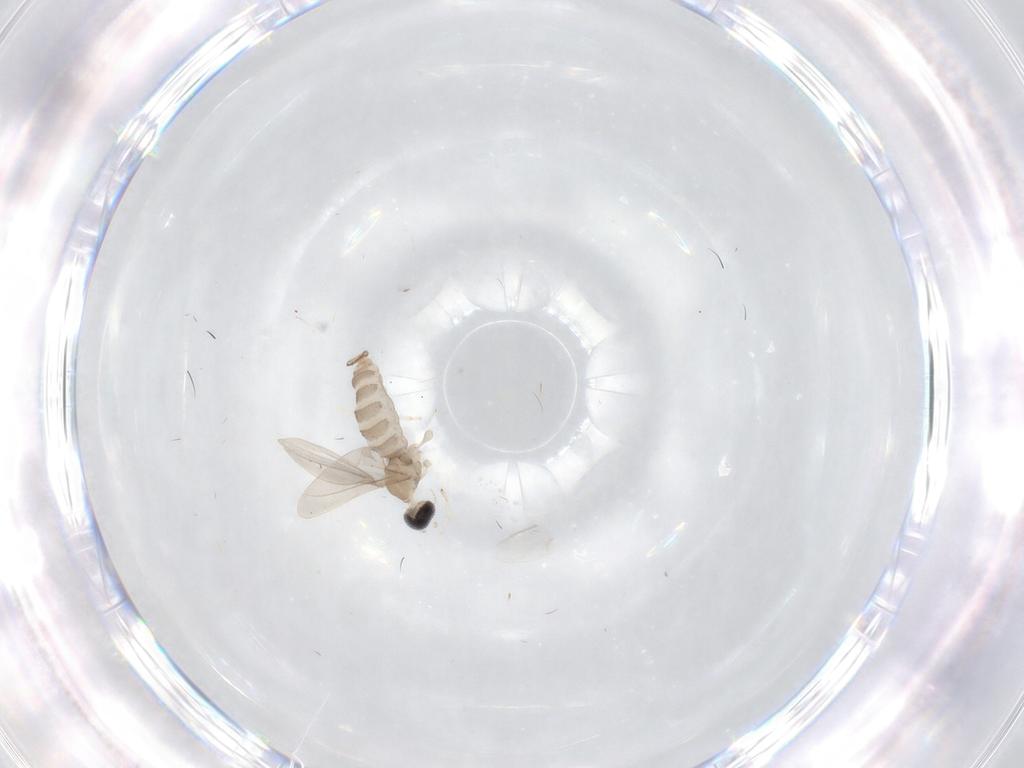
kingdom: Animalia
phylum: Arthropoda
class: Insecta
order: Diptera
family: Cecidomyiidae
